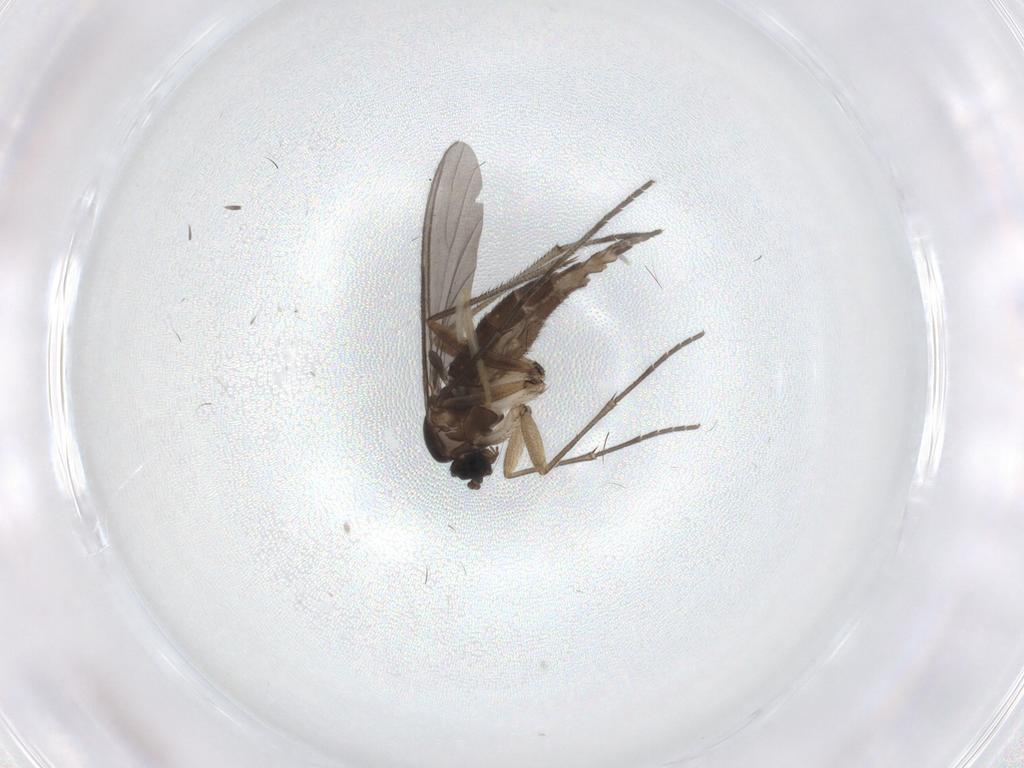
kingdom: Animalia
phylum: Arthropoda
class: Insecta
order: Diptera
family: Sciaridae
